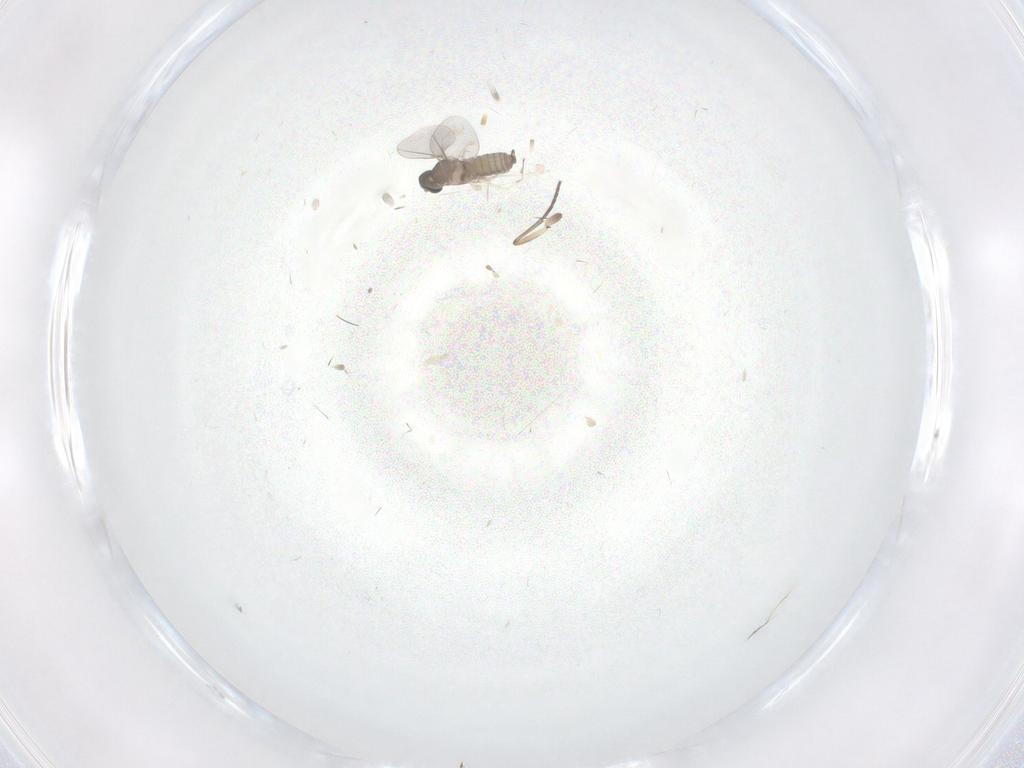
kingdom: Animalia
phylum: Arthropoda
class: Insecta
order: Diptera
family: Cecidomyiidae
